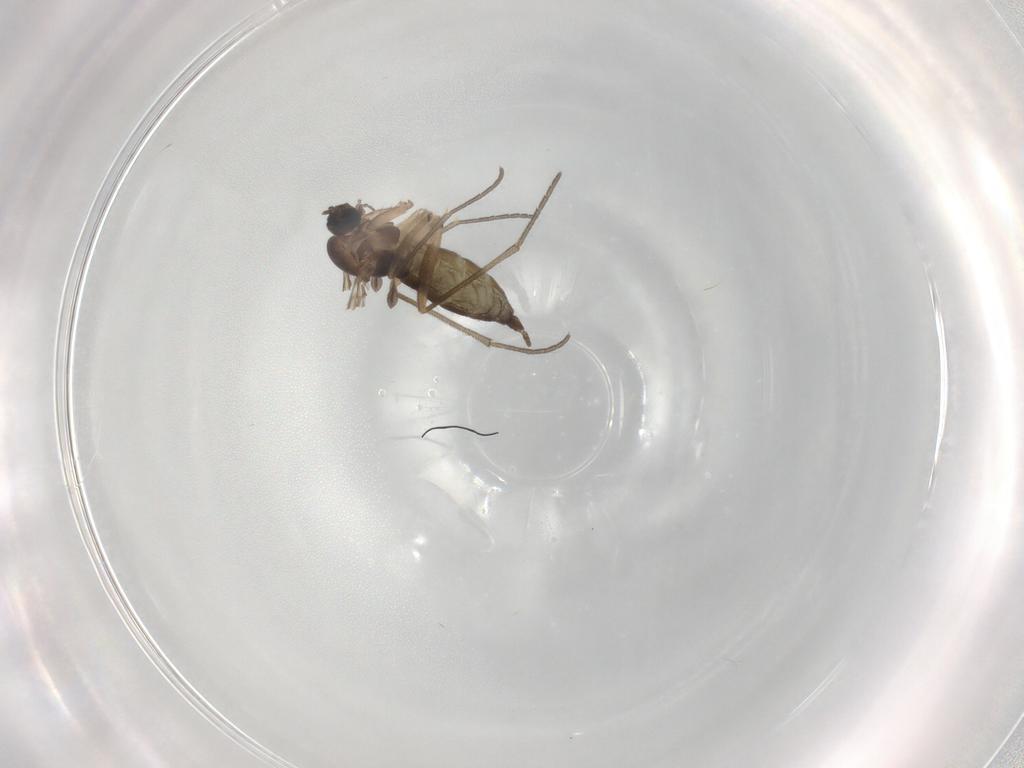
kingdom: Animalia
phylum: Arthropoda
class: Insecta
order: Diptera
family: Sciaridae
